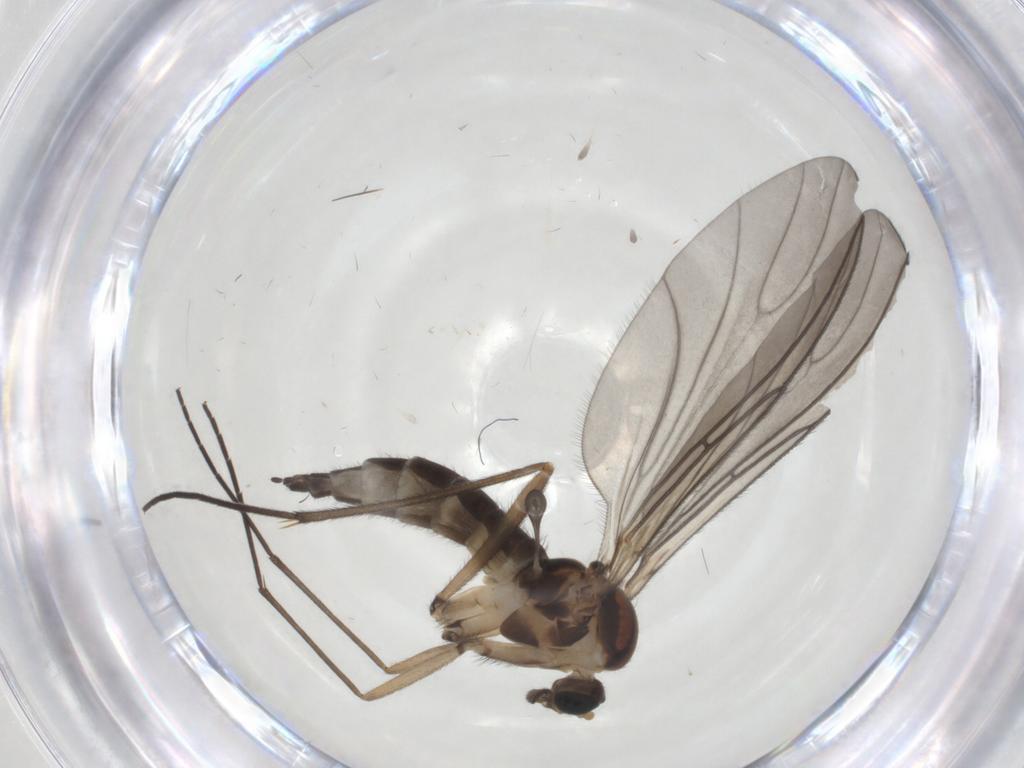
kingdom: Animalia
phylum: Arthropoda
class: Insecta
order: Diptera
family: Sciaridae
